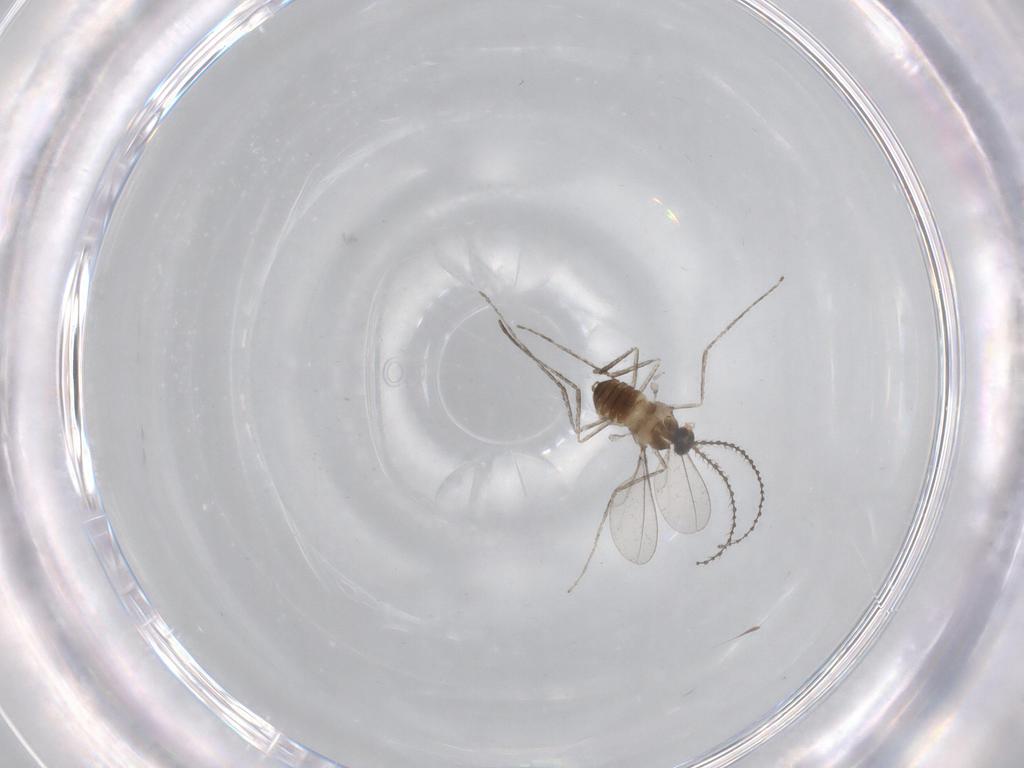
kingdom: Animalia
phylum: Arthropoda
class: Insecta
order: Diptera
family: Cecidomyiidae
